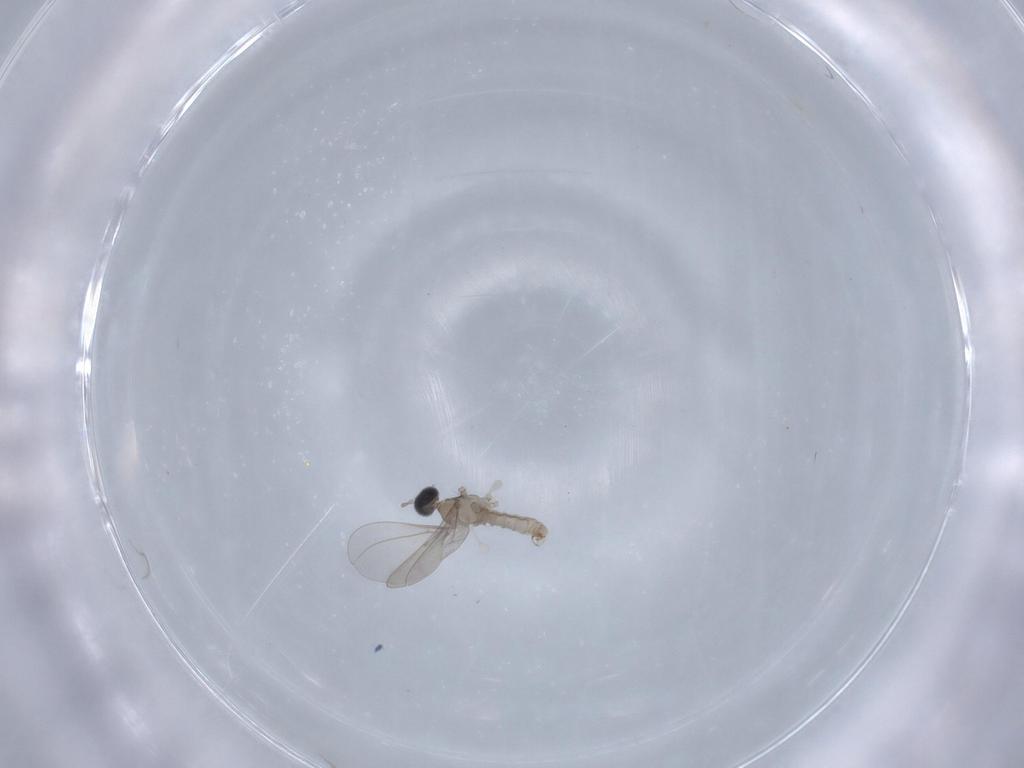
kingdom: Animalia
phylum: Arthropoda
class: Insecta
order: Diptera
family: Cecidomyiidae
